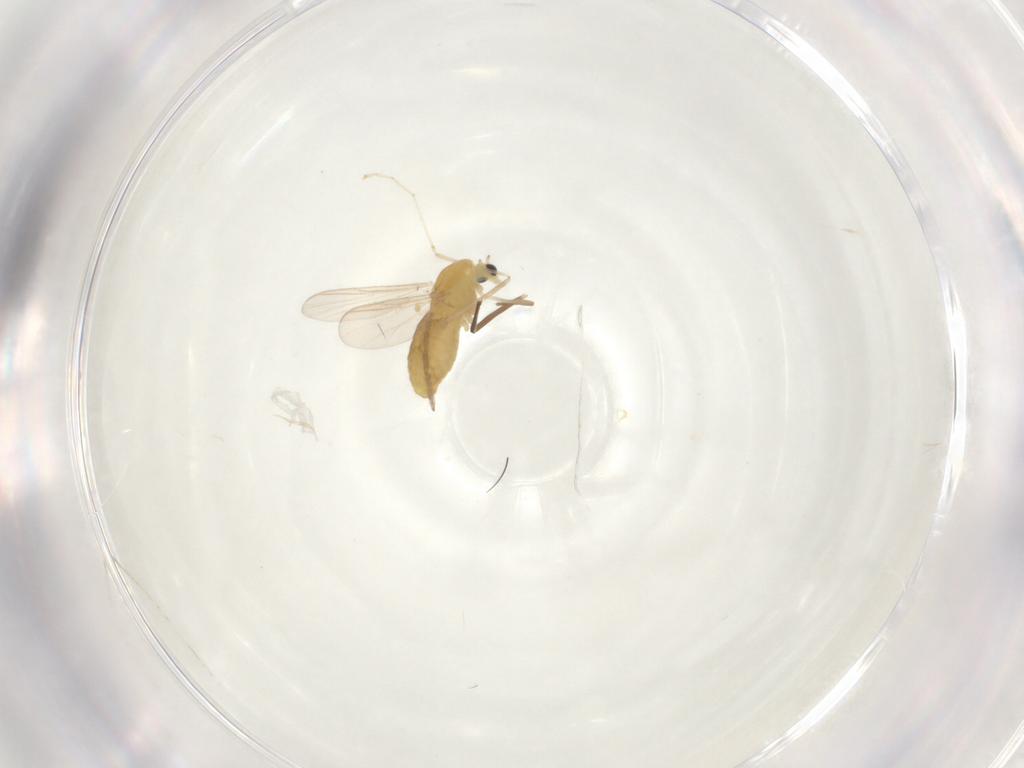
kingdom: Animalia
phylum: Arthropoda
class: Insecta
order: Diptera
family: Chironomidae
